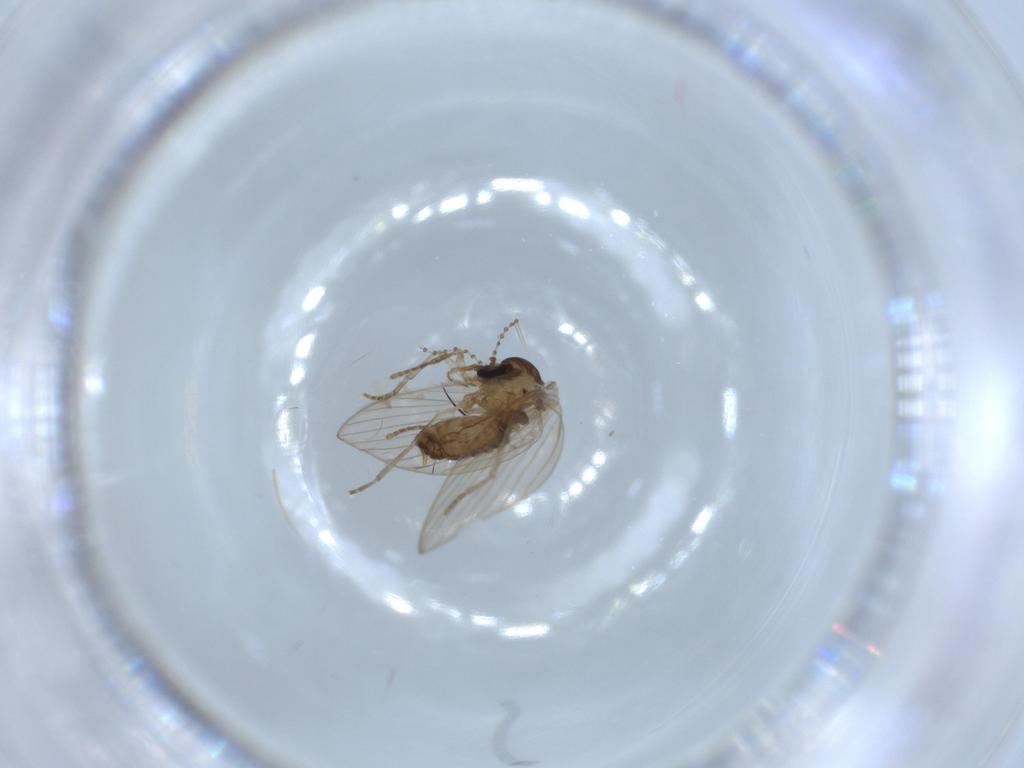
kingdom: Animalia
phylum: Arthropoda
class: Insecta
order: Diptera
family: Psychodidae
